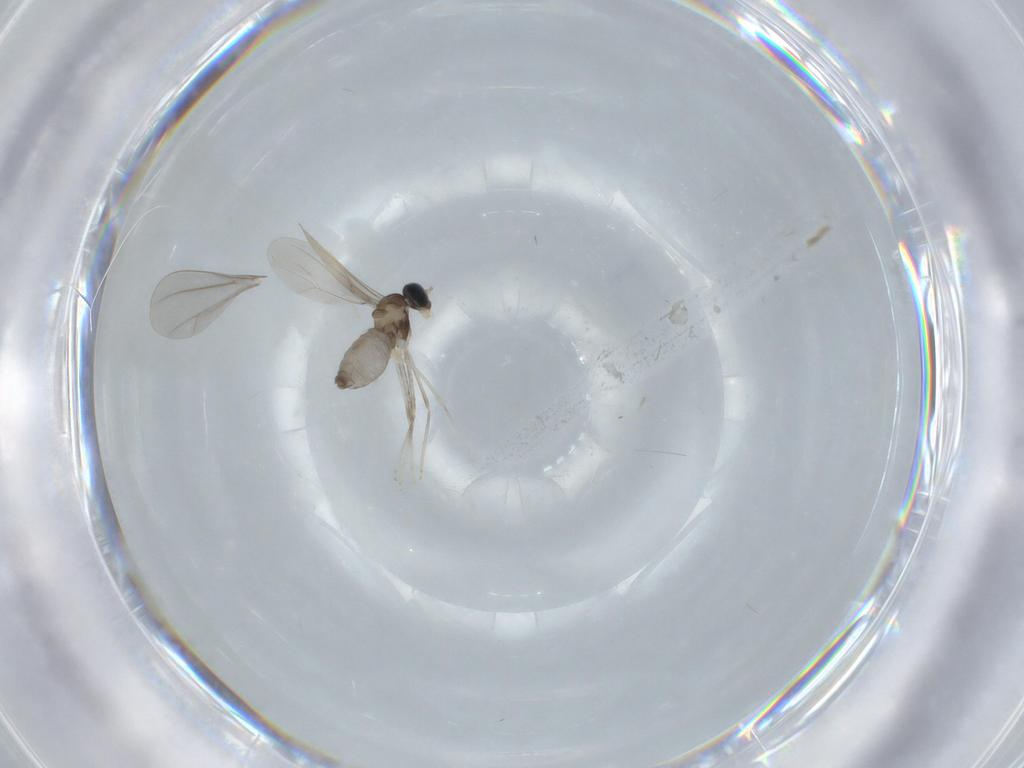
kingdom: Animalia
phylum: Arthropoda
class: Insecta
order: Diptera
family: Cecidomyiidae
